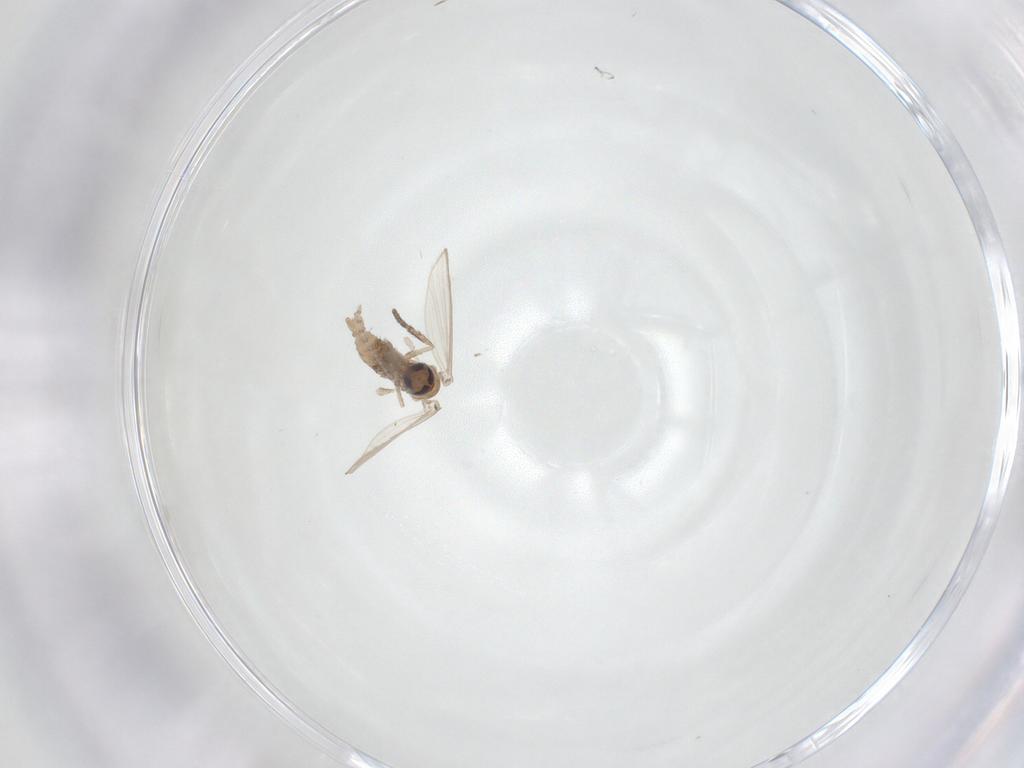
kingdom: Animalia
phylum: Arthropoda
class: Insecta
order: Diptera
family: Psychodidae
